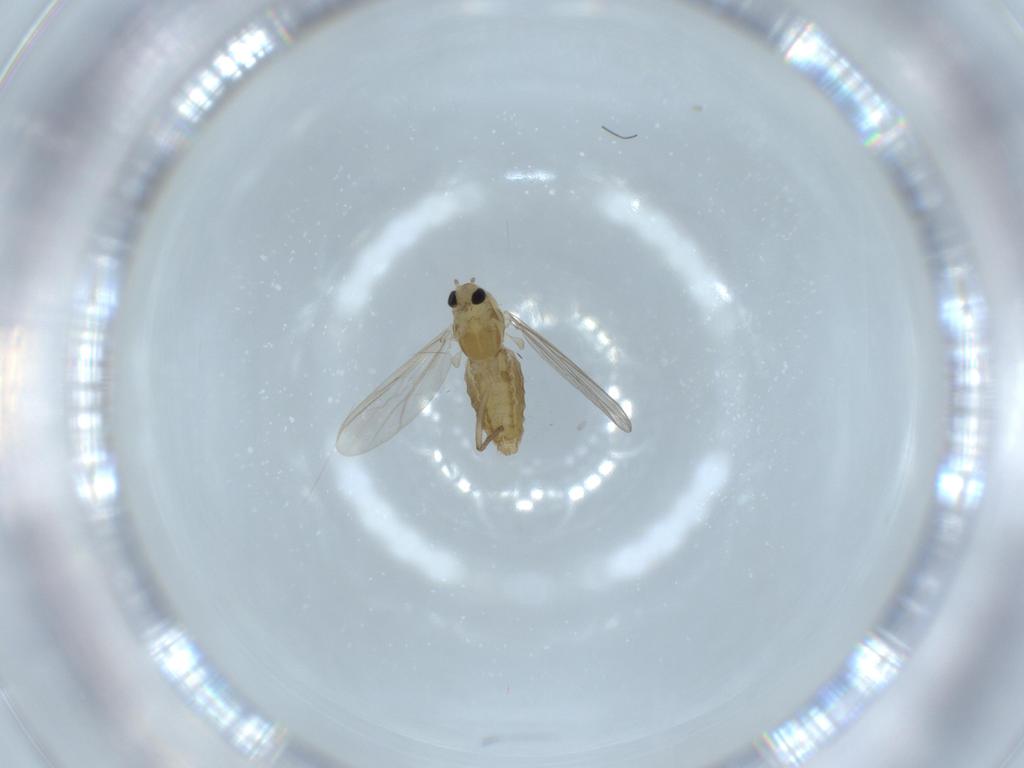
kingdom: Animalia
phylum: Arthropoda
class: Insecta
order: Diptera
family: Chironomidae
